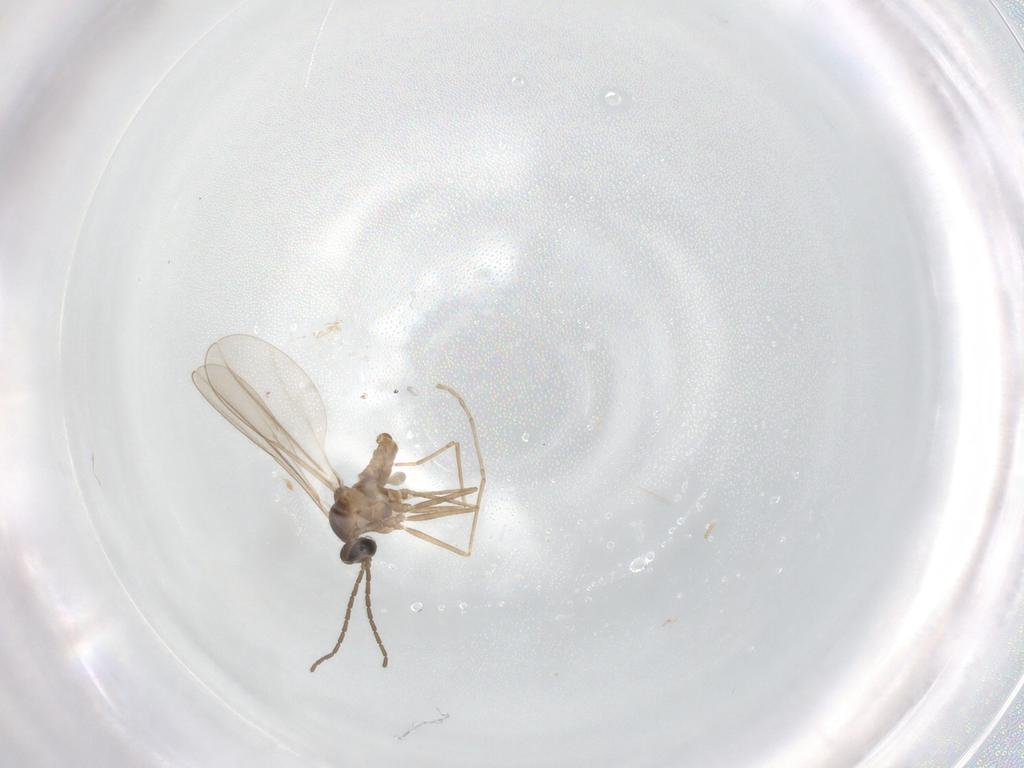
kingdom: Animalia
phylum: Arthropoda
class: Insecta
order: Diptera
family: Cecidomyiidae
